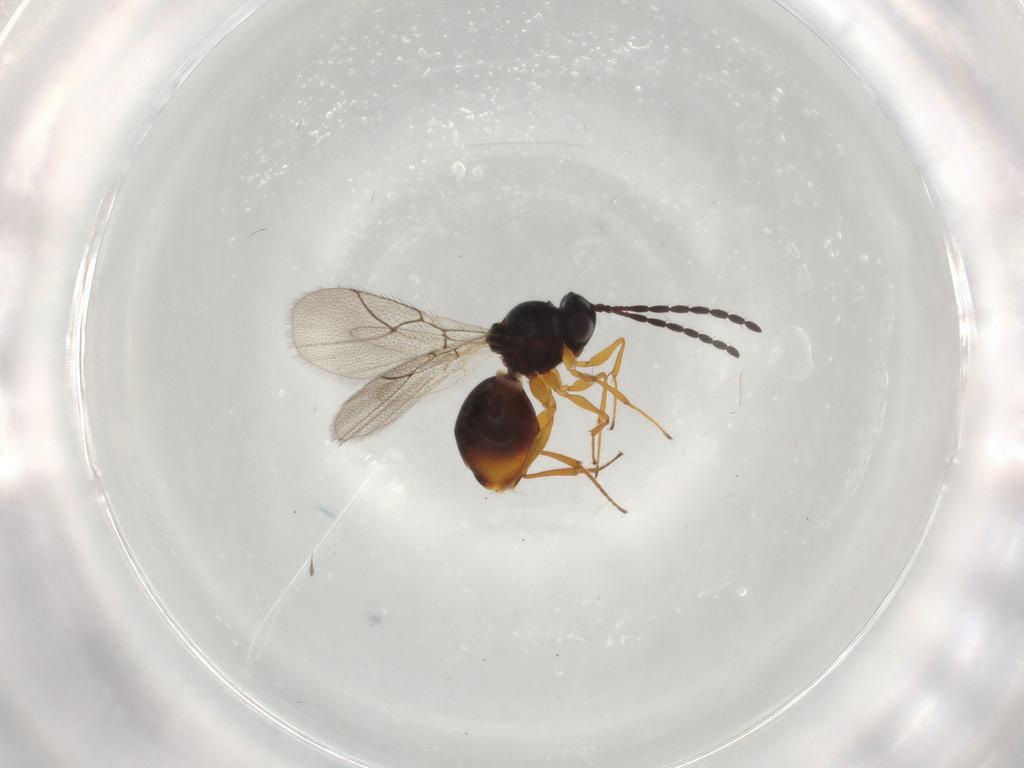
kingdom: Animalia
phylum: Arthropoda
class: Insecta
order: Hymenoptera
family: Figitidae
